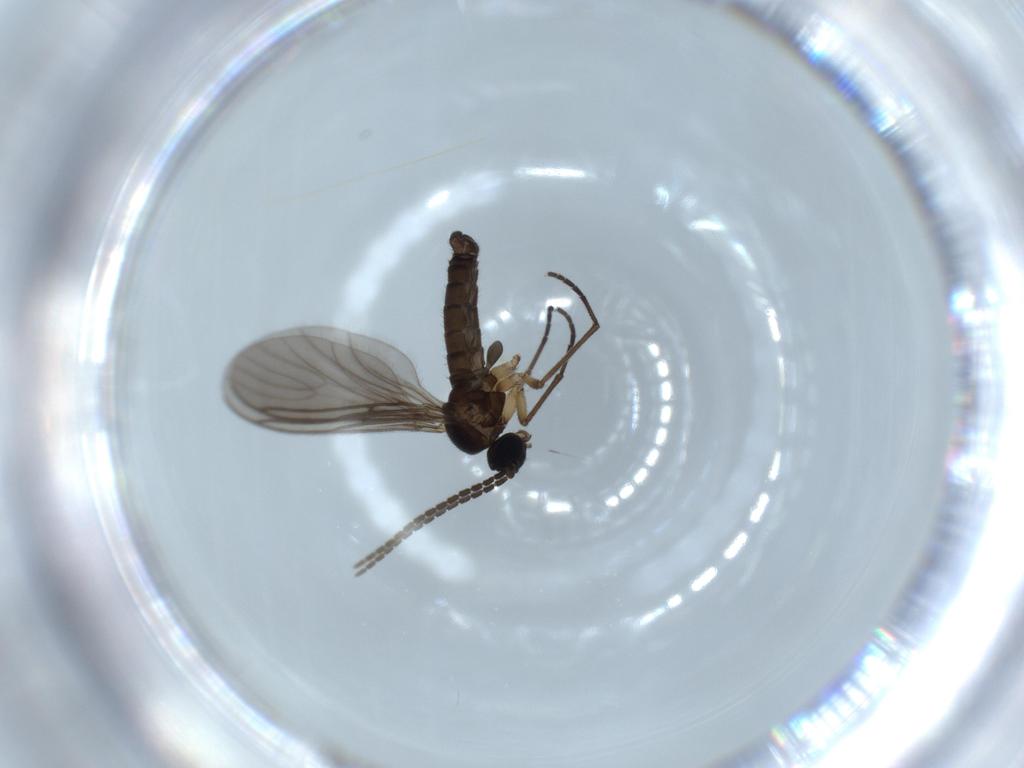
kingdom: Animalia
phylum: Arthropoda
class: Insecta
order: Diptera
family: Sciaridae
